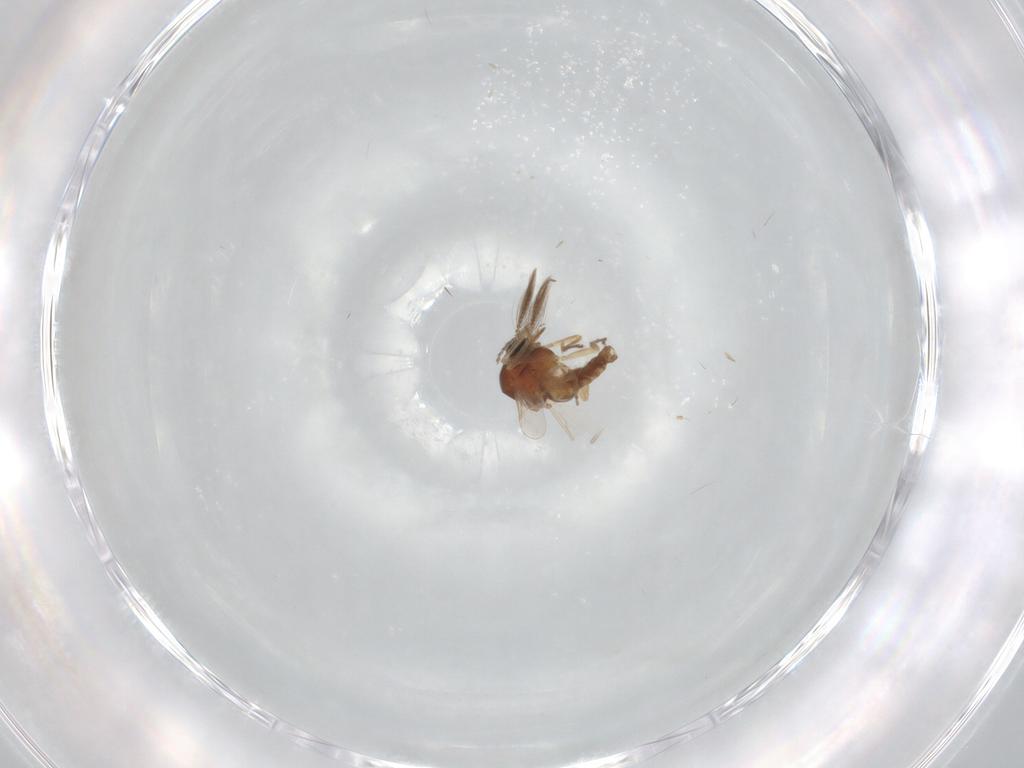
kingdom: Animalia
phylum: Arthropoda
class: Insecta
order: Diptera
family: Ceratopogonidae
